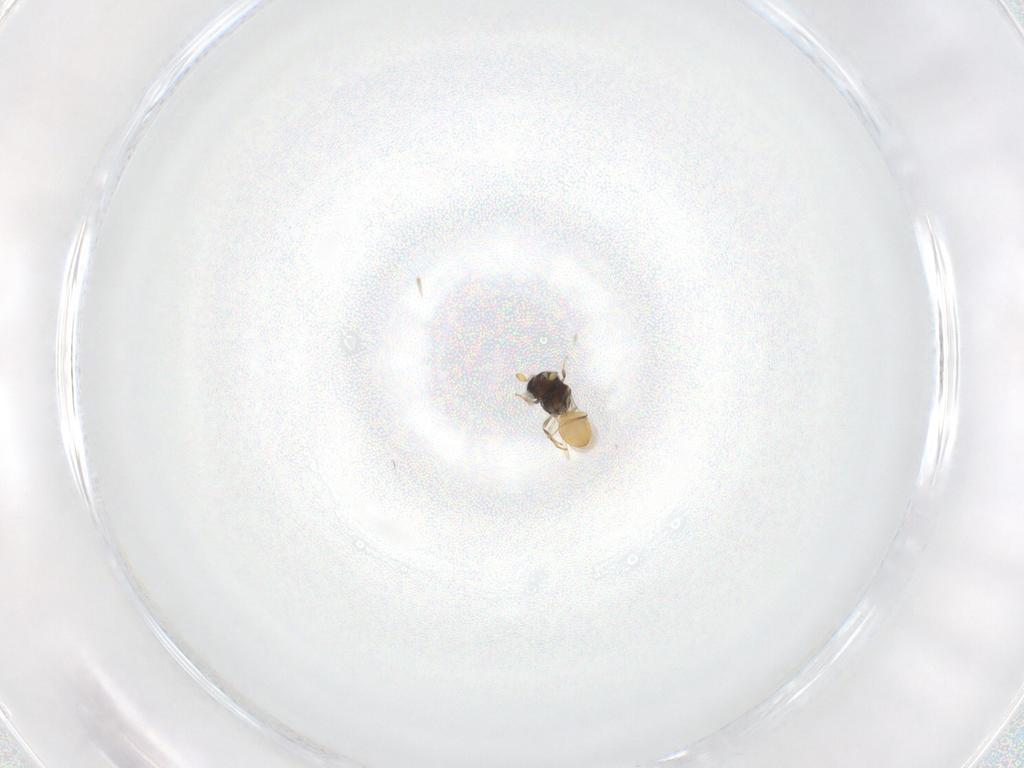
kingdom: Animalia
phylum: Arthropoda
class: Insecta
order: Hymenoptera
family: Scelionidae
